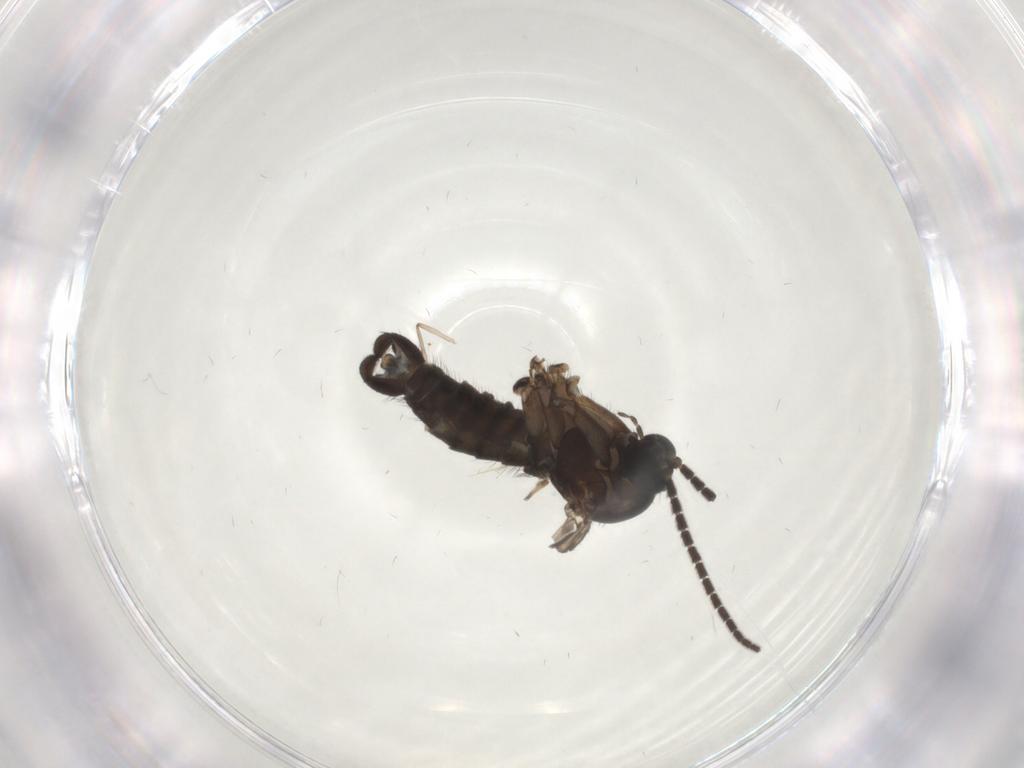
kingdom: Animalia
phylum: Arthropoda
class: Insecta
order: Diptera
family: Sciaridae
